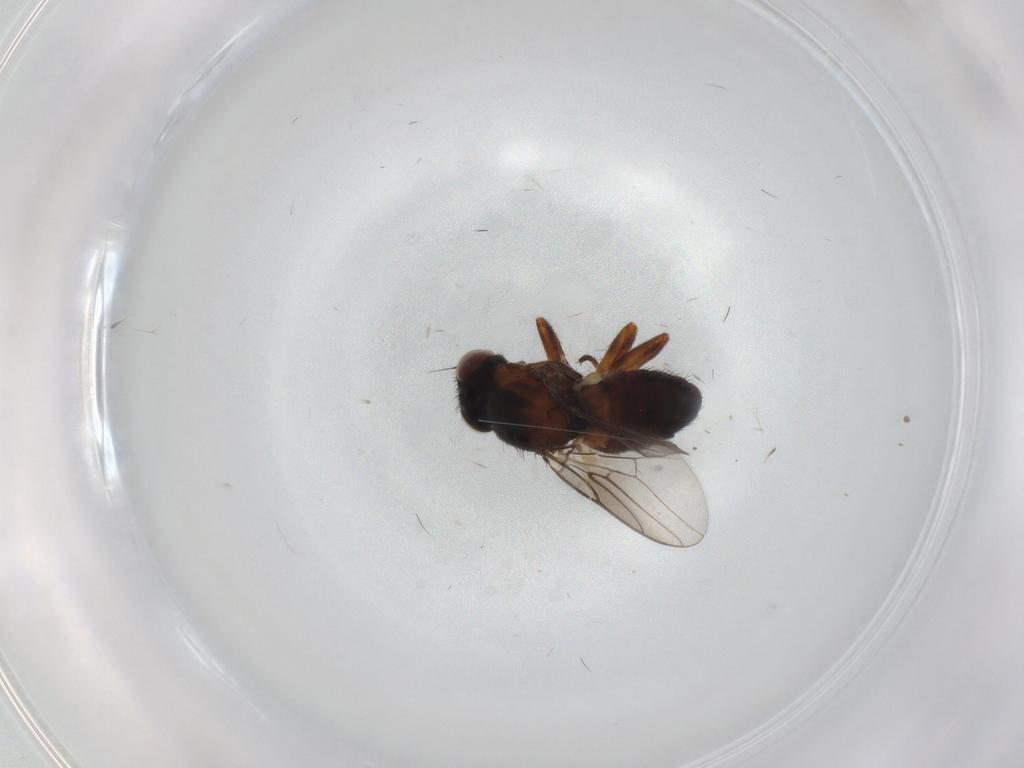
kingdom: Animalia
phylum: Arthropoda
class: Insecta
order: Diptera
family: Chloropidae
